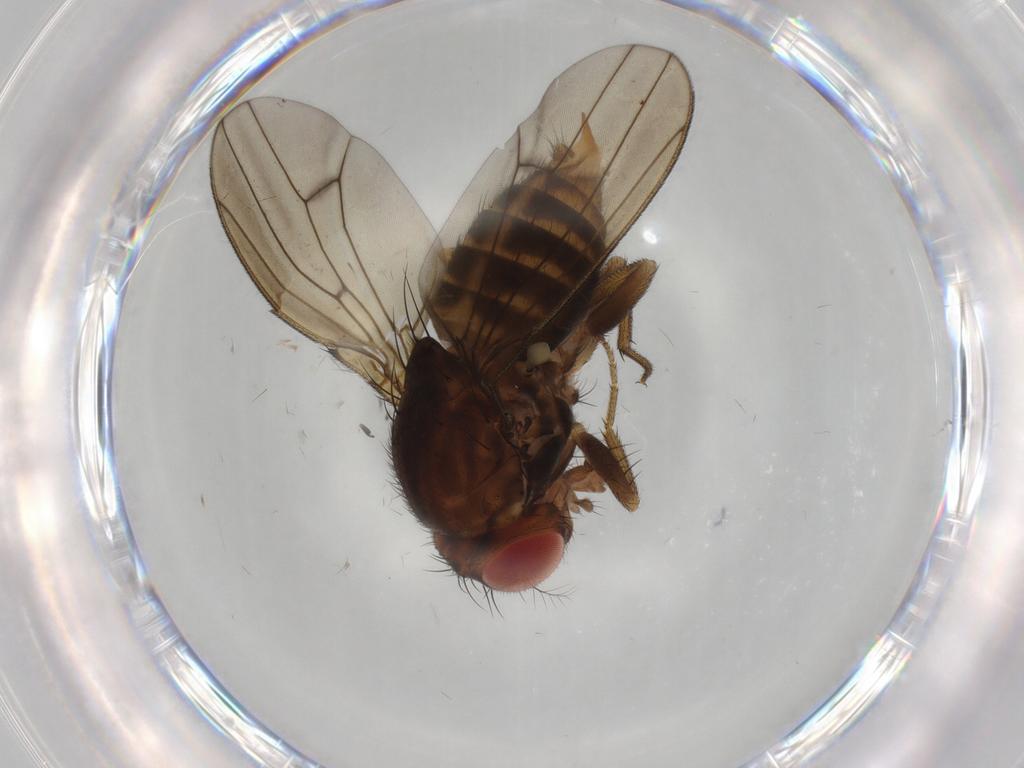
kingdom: Animalia
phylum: Arthropoda
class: Insecta
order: Diptera
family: Drosophilidae
